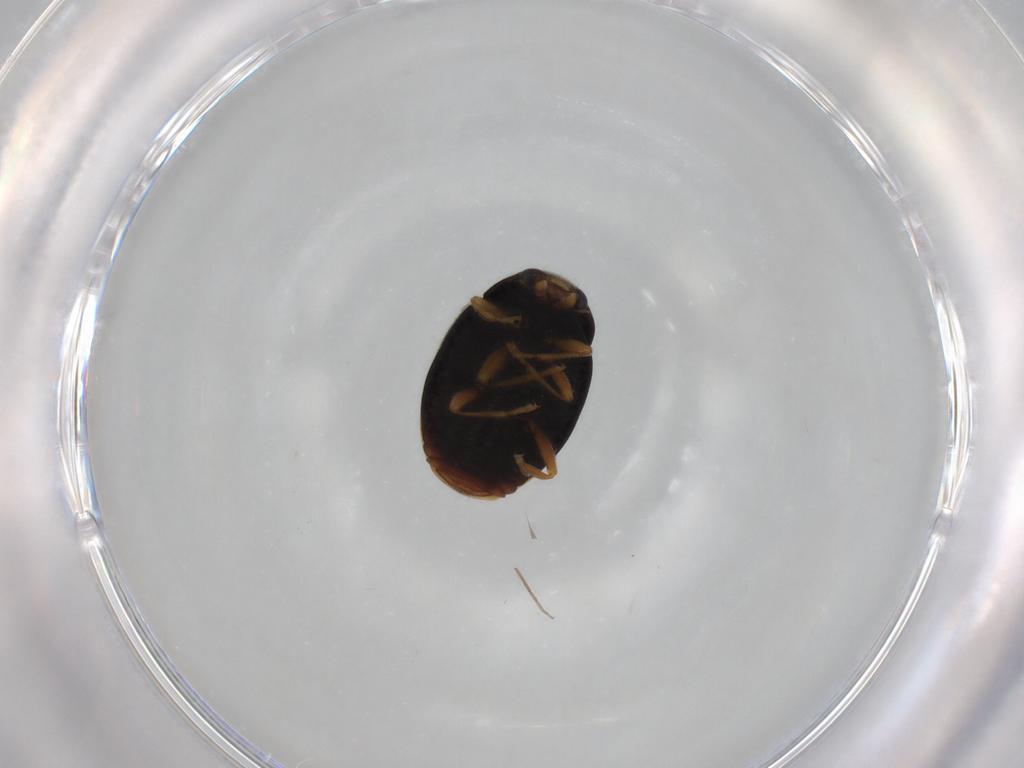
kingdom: Animalia
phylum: Arthropoda
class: Insecta
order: Coleoptera
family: Coccinellidae
